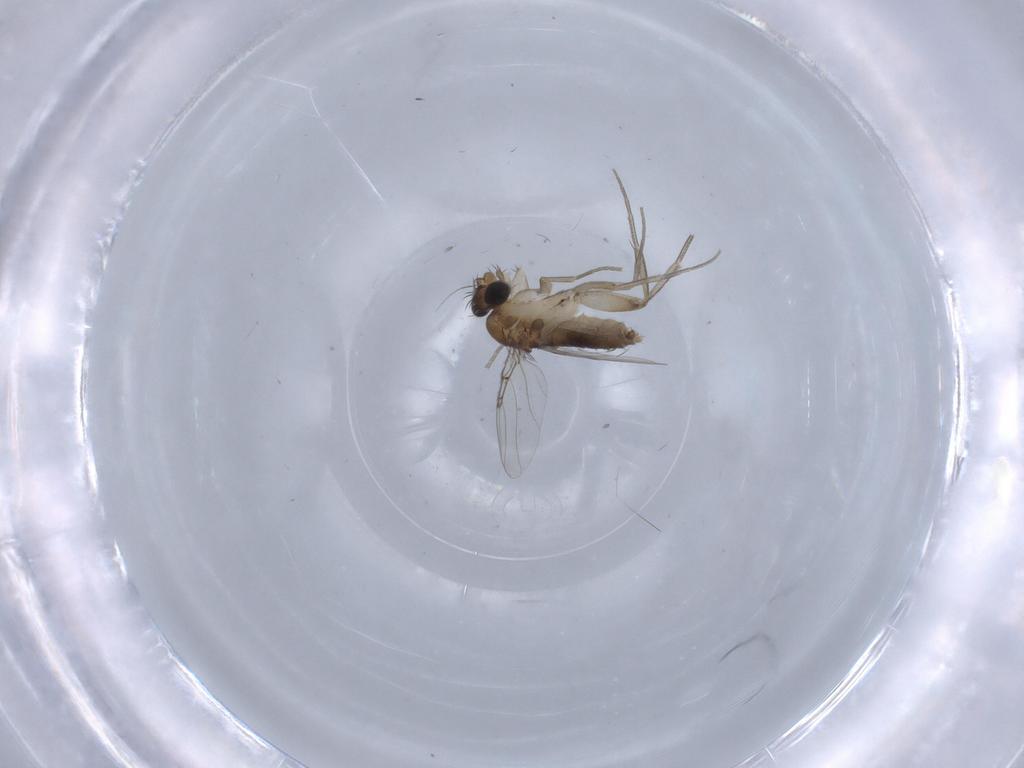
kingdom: Animalia
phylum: Arthropoda
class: Insecta
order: Diptera
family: Phoridae
